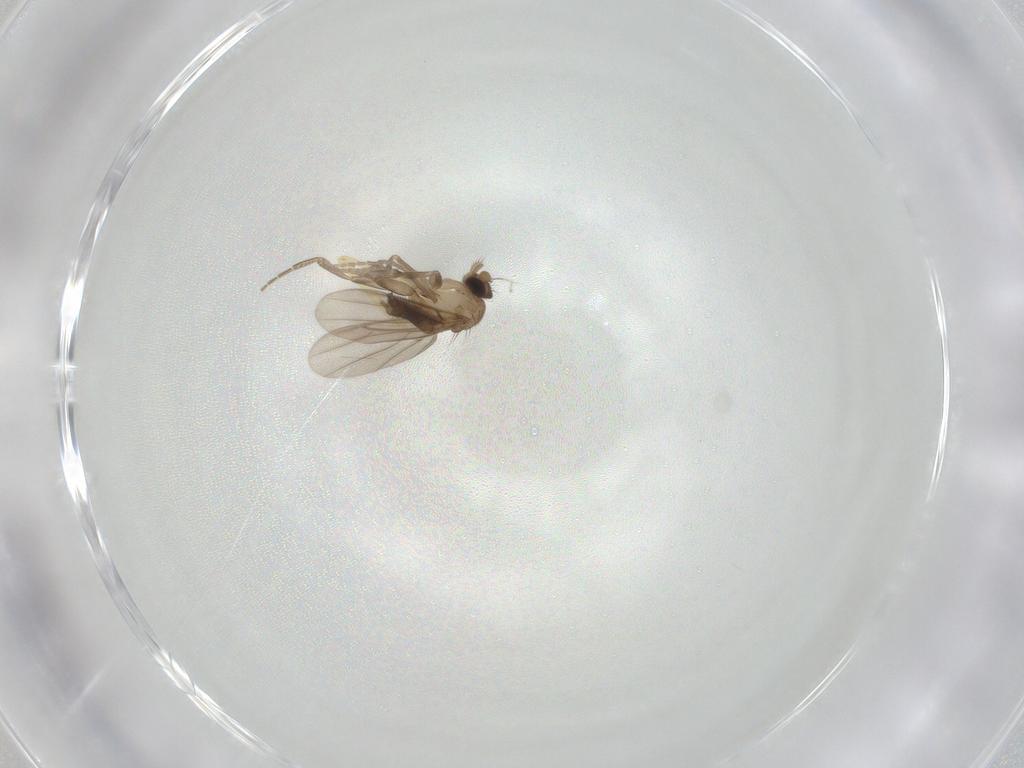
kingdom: Animalia
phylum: Arthropoda
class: Insecta
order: Diptera
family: Psychodidae
